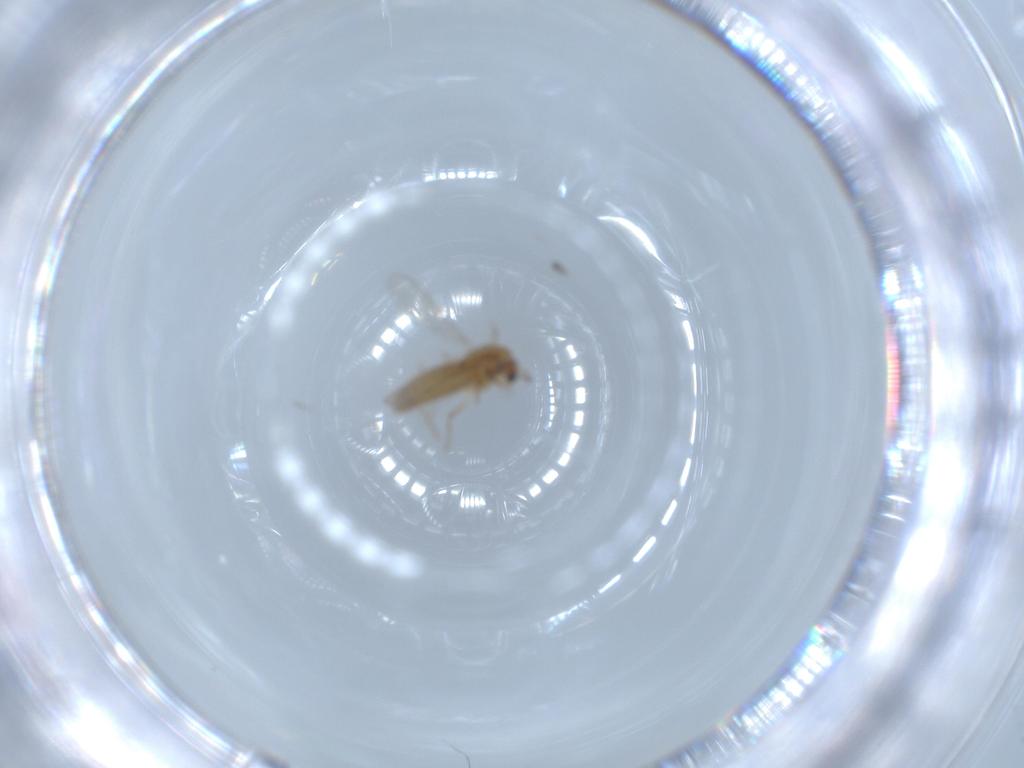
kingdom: Animalia
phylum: Arthropoda
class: Insecta
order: Diptera
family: Chironomidae
